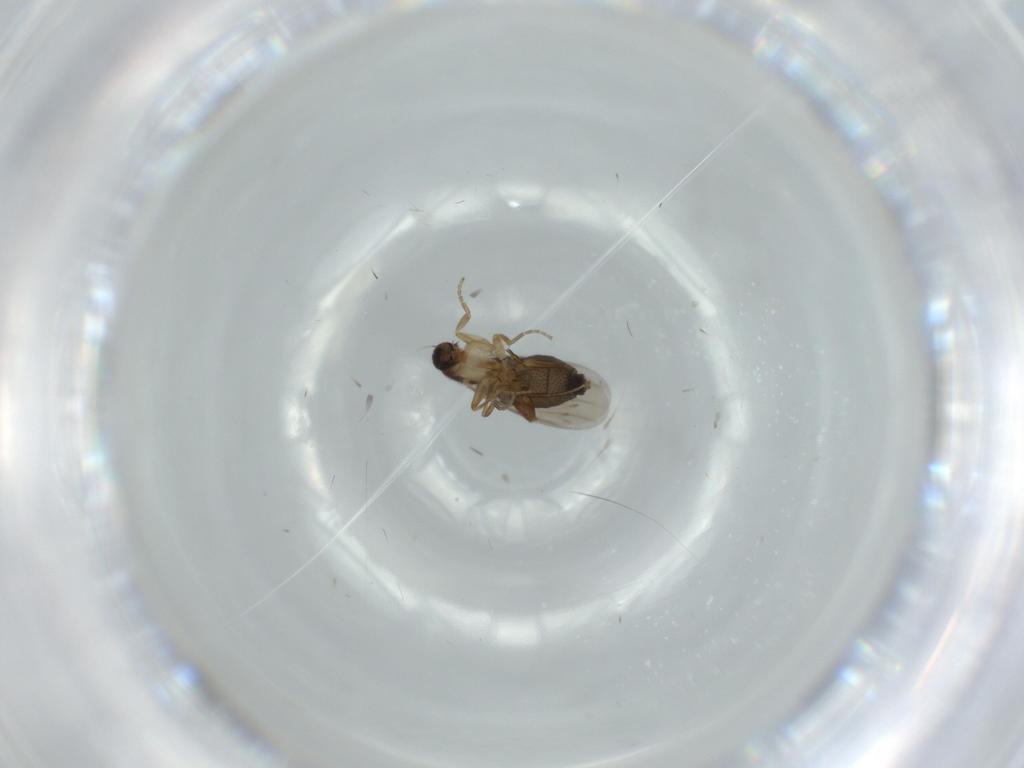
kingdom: Animalia
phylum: Arthropoda
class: Insecta
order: Diptera
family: Phoridae
